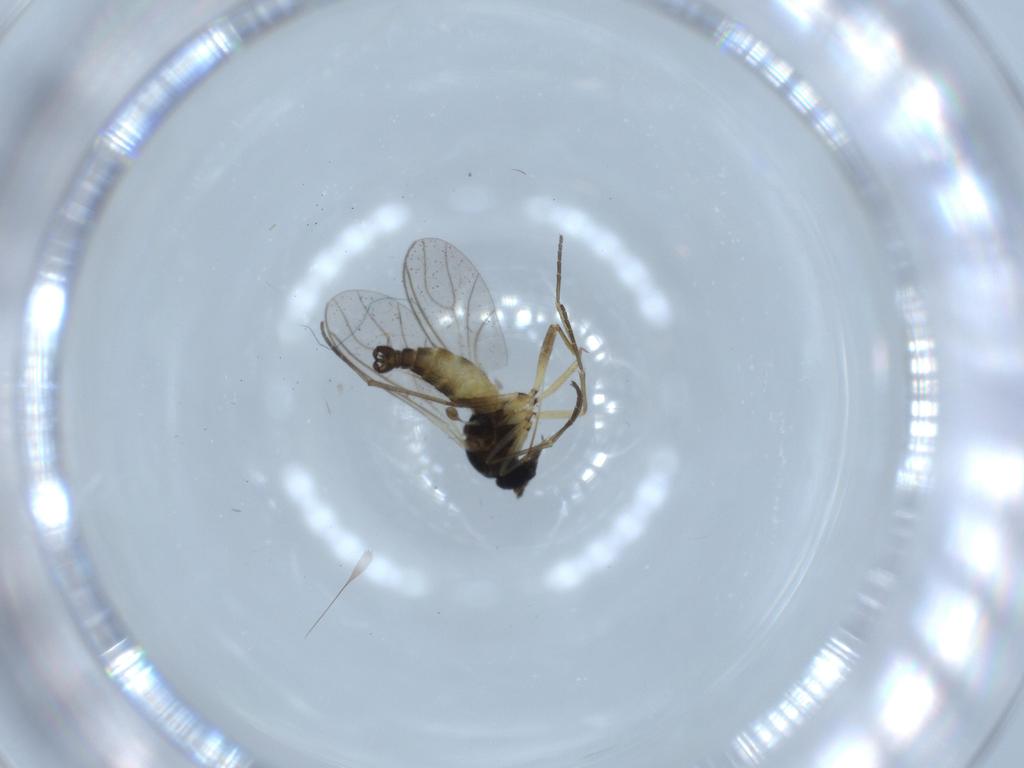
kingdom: Animalia
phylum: Arthropoda
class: Insecta
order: Diptera
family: Sciaridae
